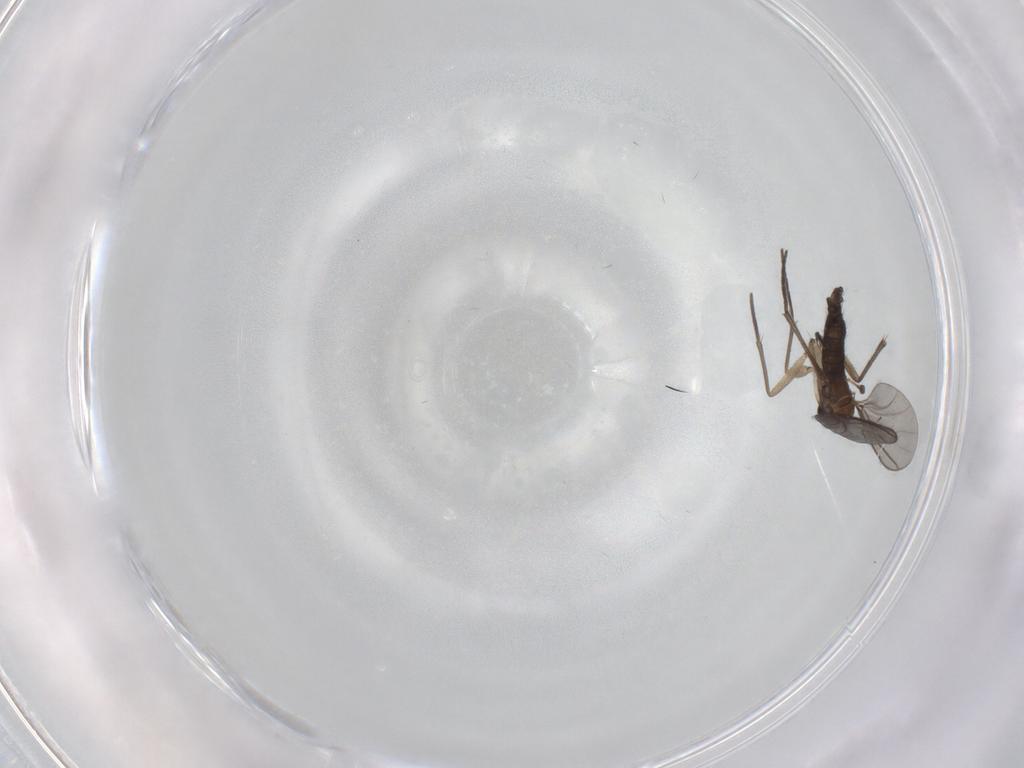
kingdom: Animalia
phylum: Arthropoda
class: Insecta
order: Diptera
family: Sciaridae
